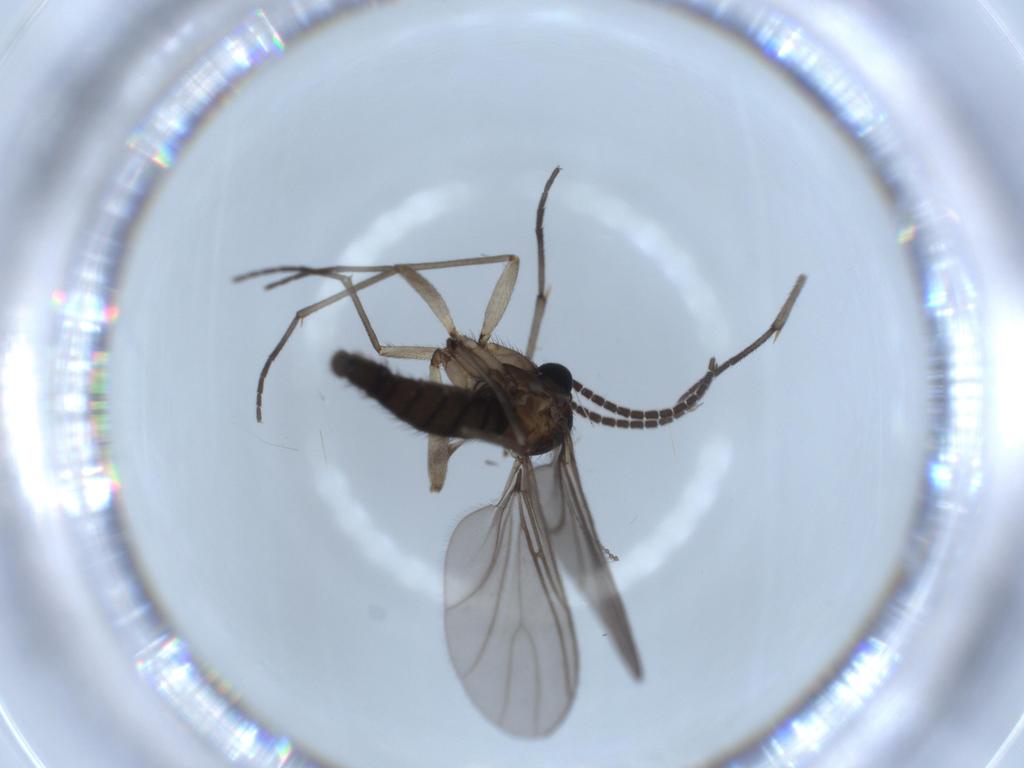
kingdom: Animalia
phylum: Arthropoda
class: Insecta
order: Diptera
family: Sciaridae
